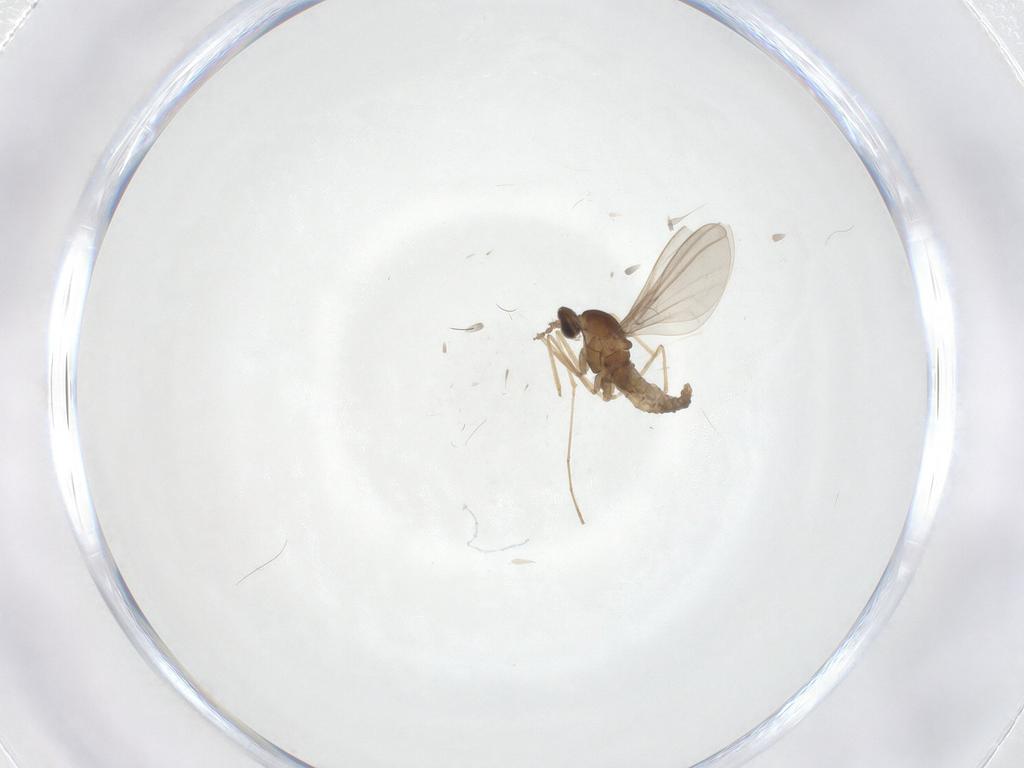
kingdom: Animalia
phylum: Arthropoda
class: Insecta
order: Diptera
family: Cecidomyiidae
